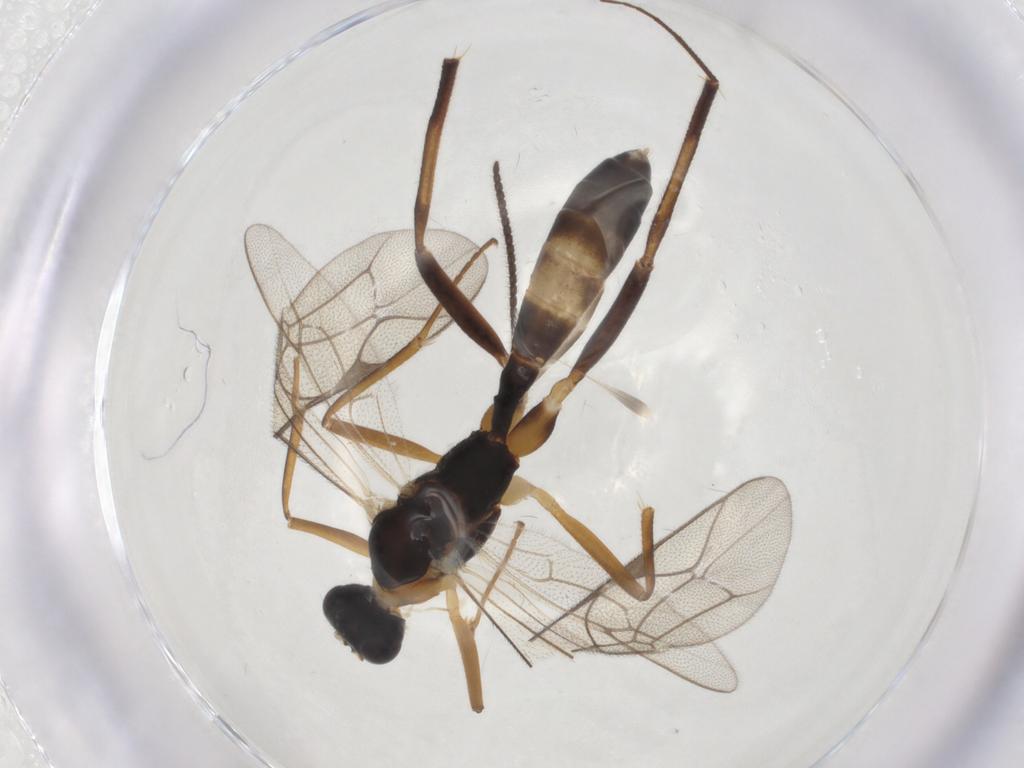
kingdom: Animalia
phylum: Arthropoda
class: Insecta
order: Hymenoptera
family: Ichneumonidae
